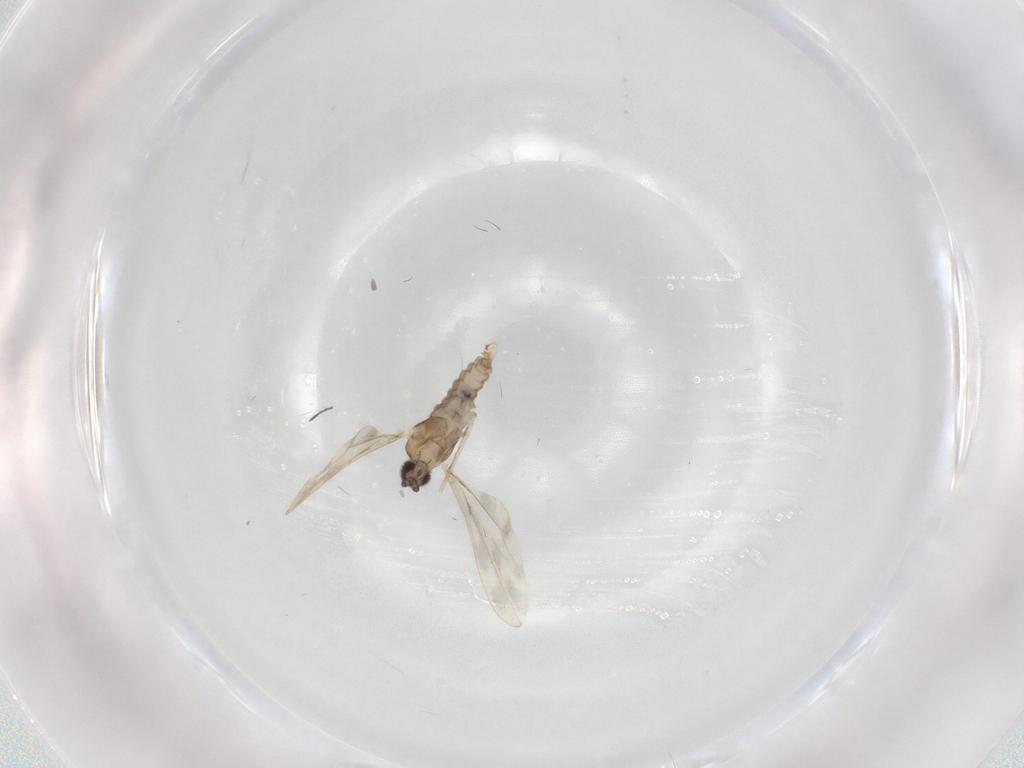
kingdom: Animalia
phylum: Arthropoda
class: Insecta
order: Diptera
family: Cecidomyiidae
